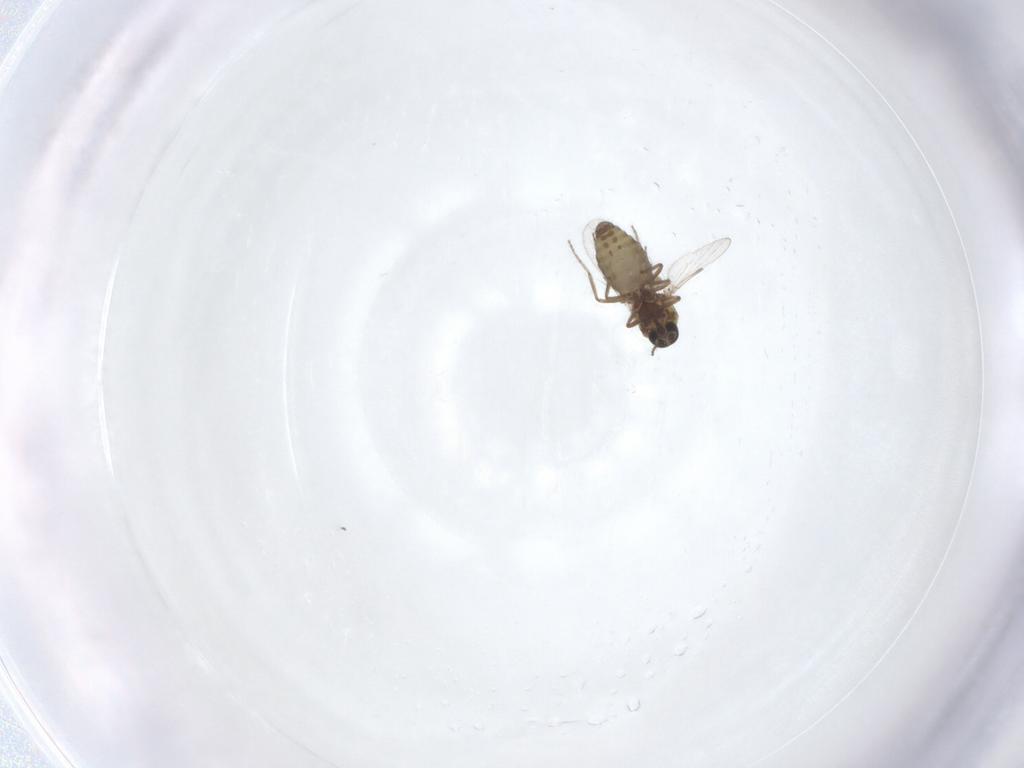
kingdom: Animalia
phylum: Arthropoda
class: Insecta
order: Diptera
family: Ceratopogonidae
